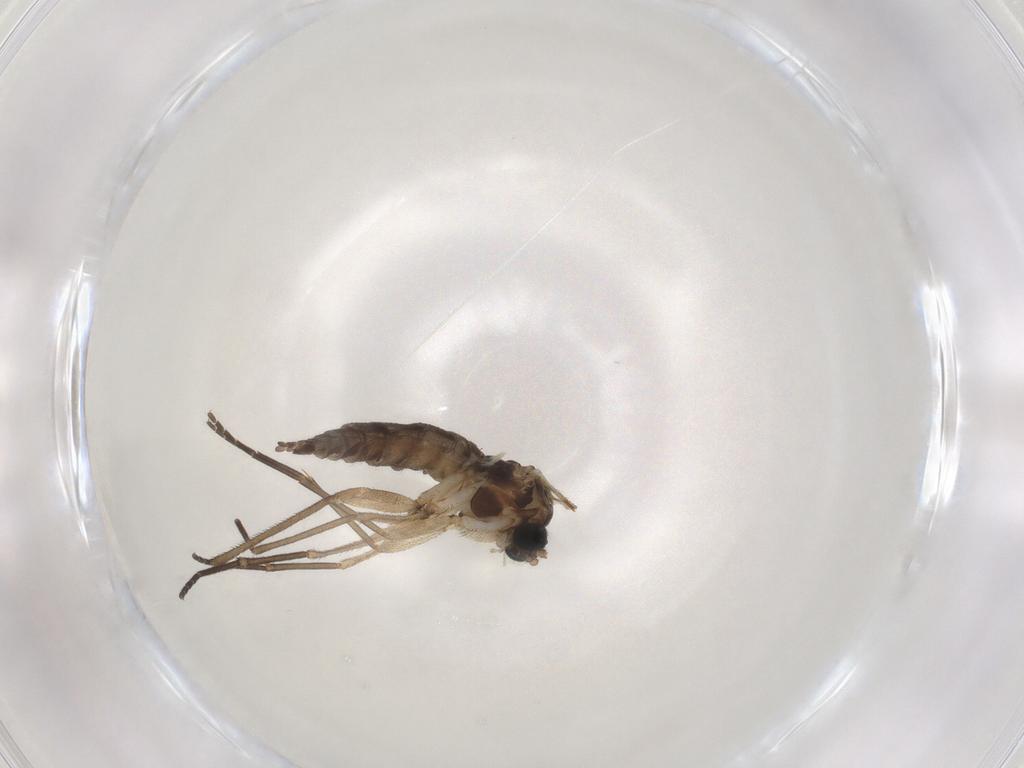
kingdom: Animalia
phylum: Arthropoda
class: Insecta
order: Diptera
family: Sciaridae
